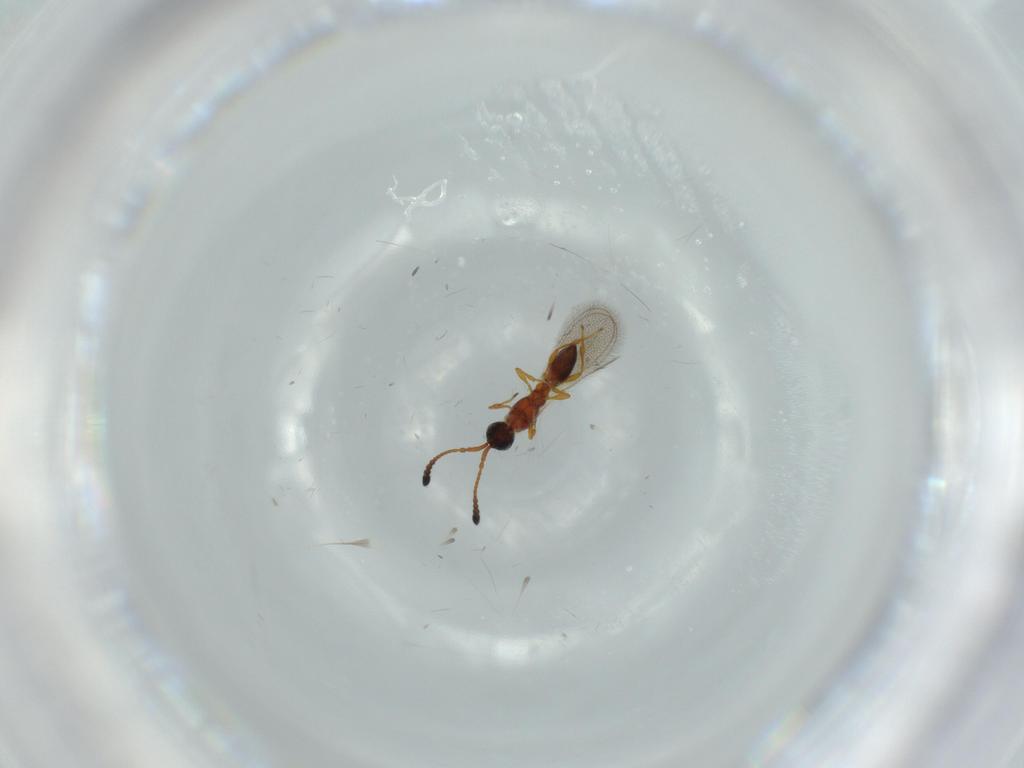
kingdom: Animalia
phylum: Arthropoda
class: Insecta
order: Hymenoptera
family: Diapriidae
